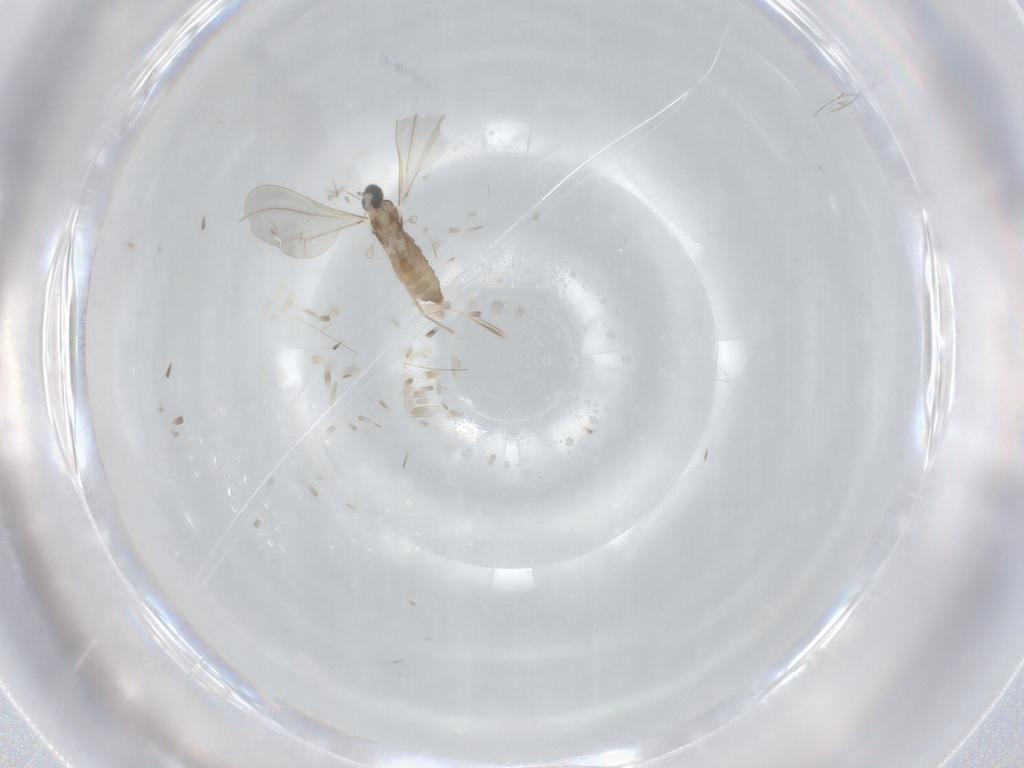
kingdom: Animalia
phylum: Arthropoda
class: Insecta
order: Diptera
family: Cecidomyiidae
